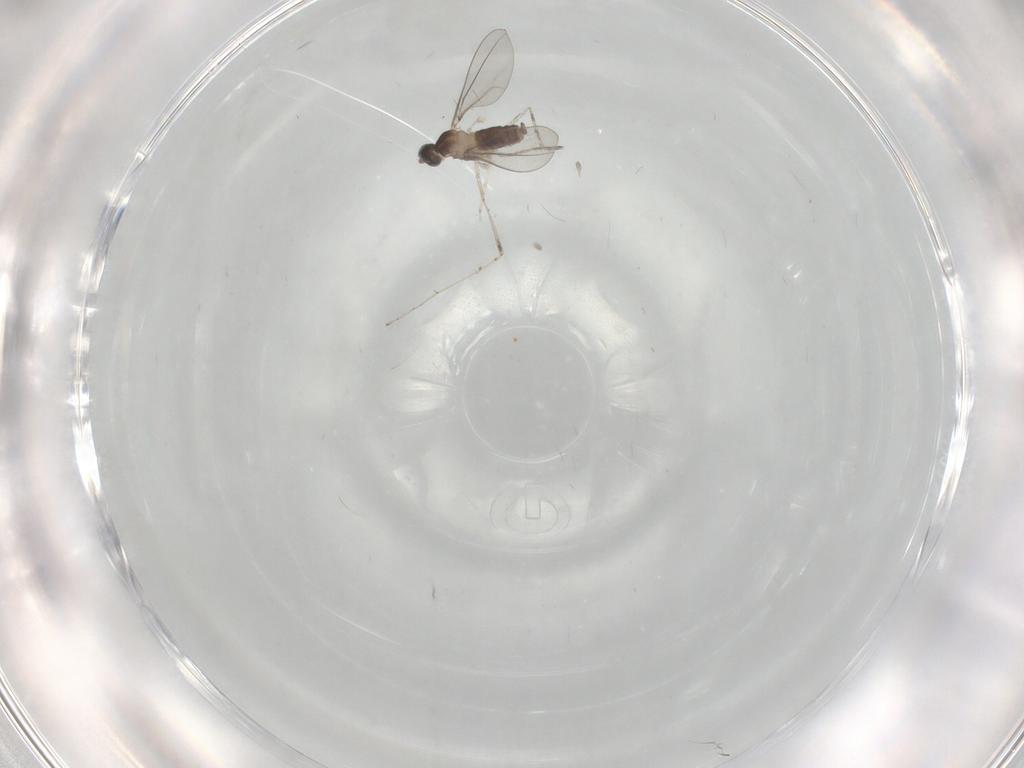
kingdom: Animalia
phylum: Arthropoda
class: Insecta
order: Diptera
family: Cecidomyiidae
